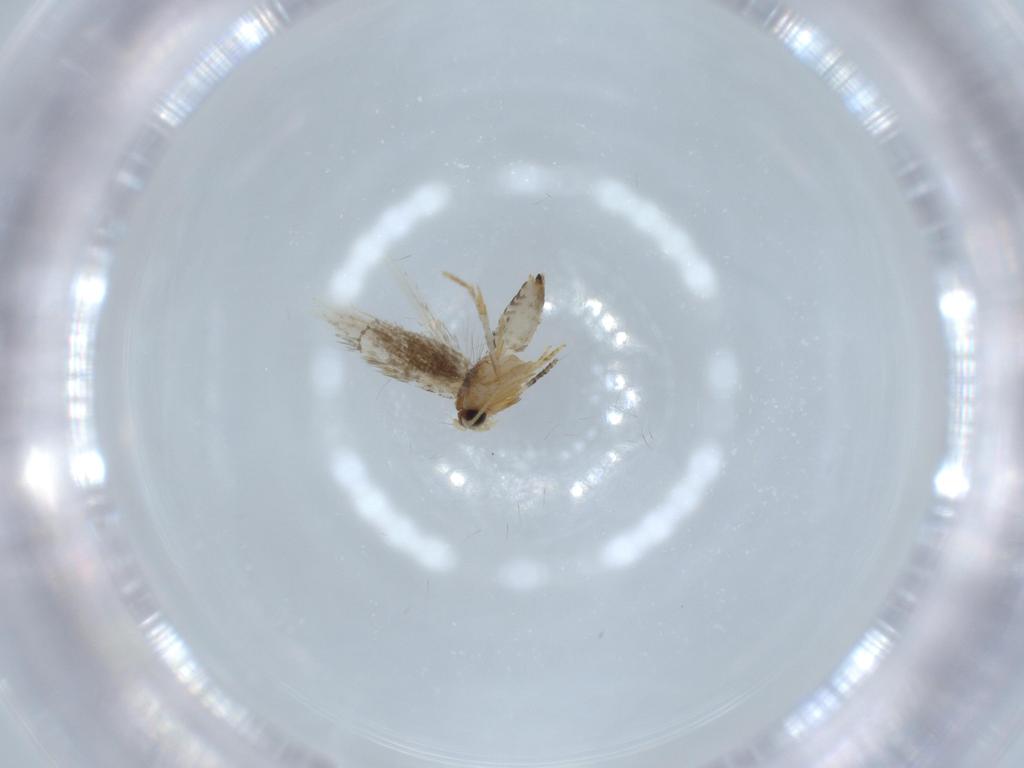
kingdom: Animalia
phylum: Arthropoda
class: Insecta
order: Lepidoptera
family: Copromorphidae
